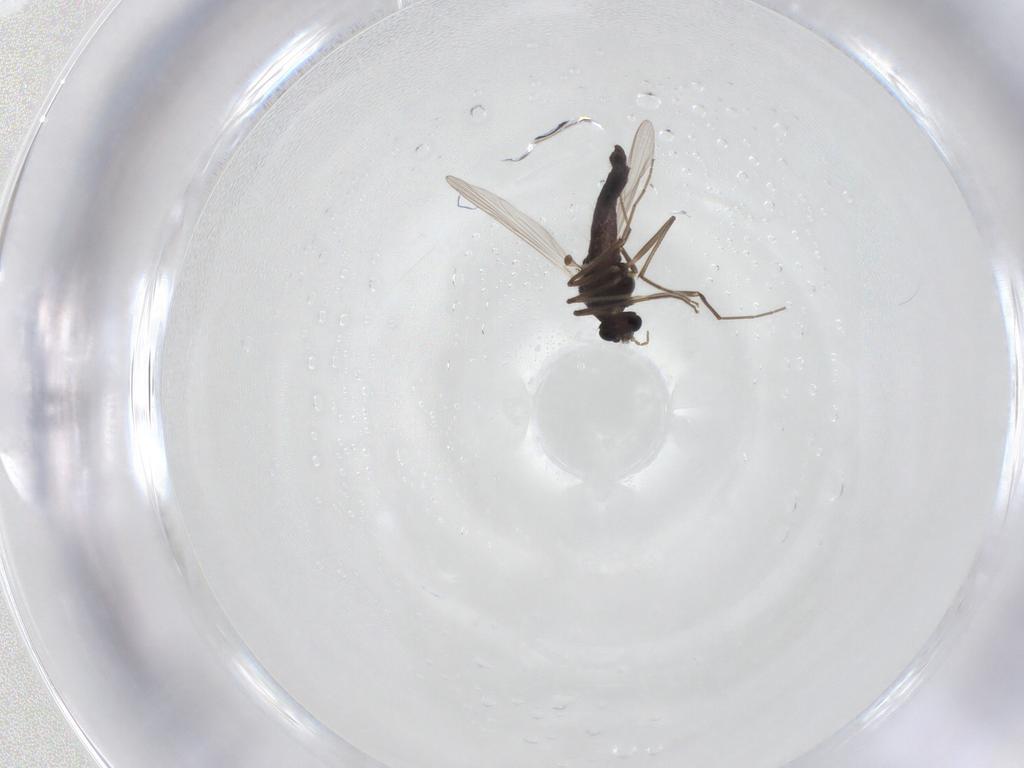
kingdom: Animalia
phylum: Arthropoda
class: Insecta
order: Diptera
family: Chironomidae
